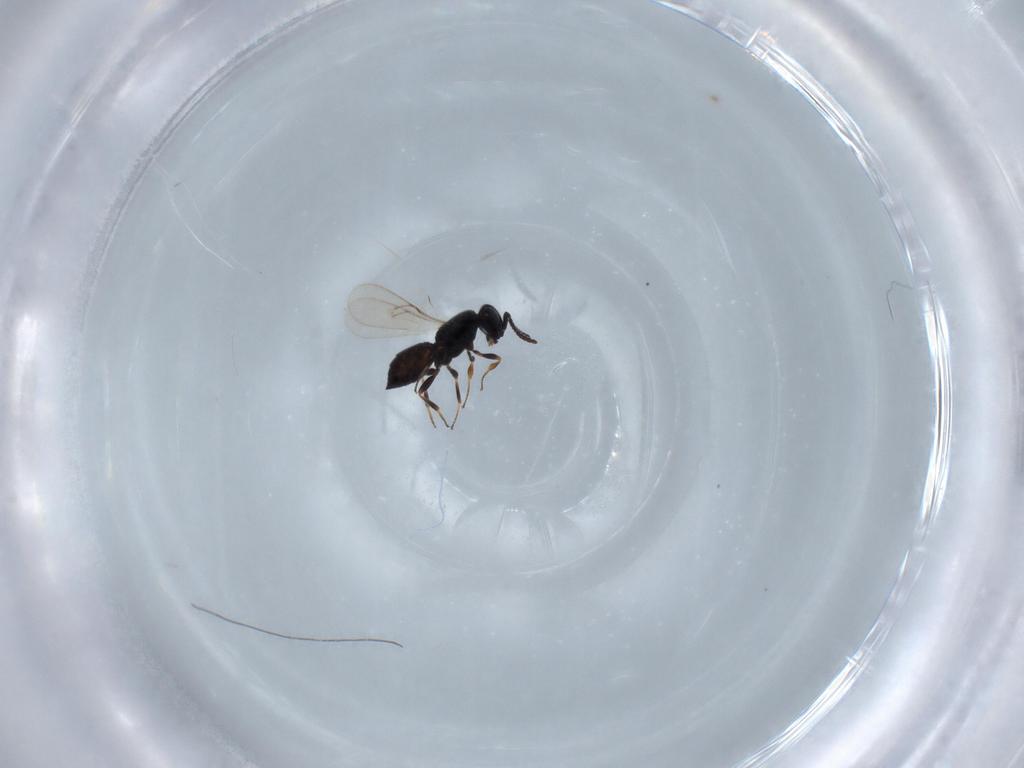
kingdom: Animalia
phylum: Arthropoda
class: Insecta
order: Hymenoptera
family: Scelionidae
